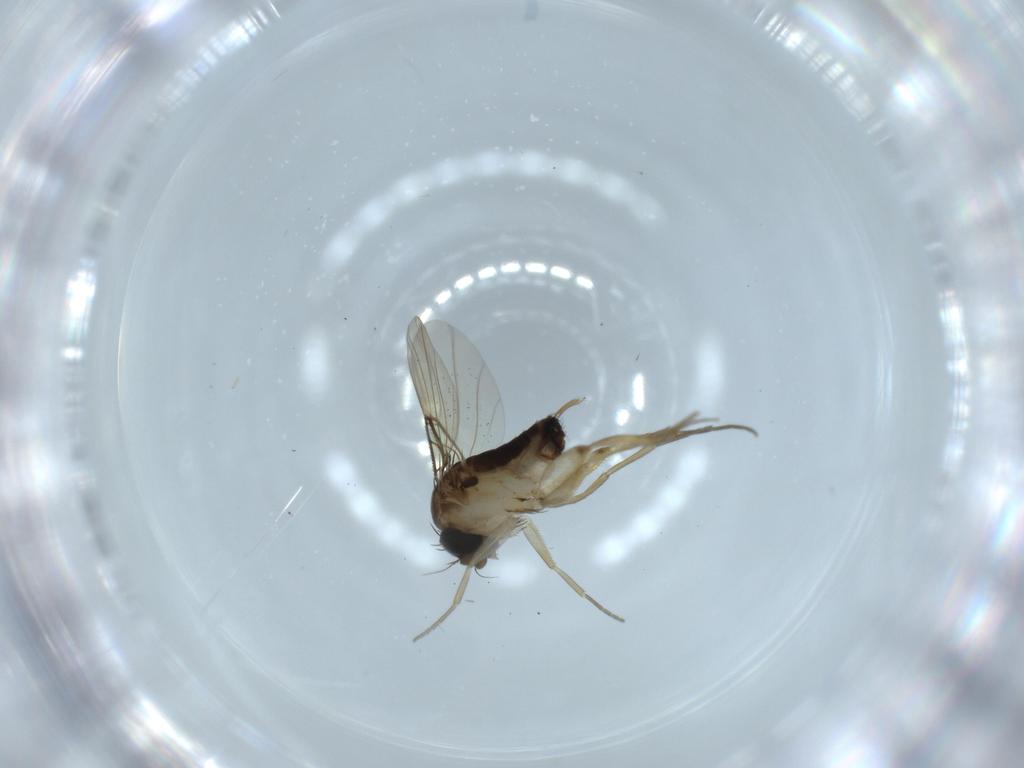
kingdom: Animalia
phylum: Arthropoda
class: Insecta
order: Diptera
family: Phoridae
